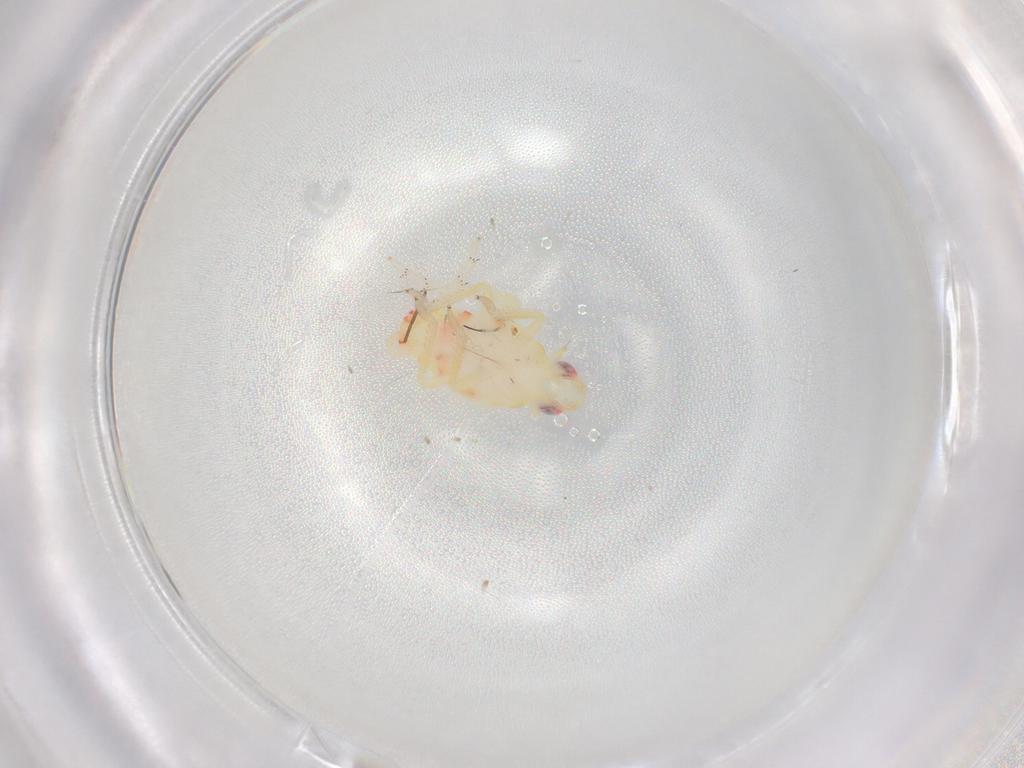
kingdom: Animalia
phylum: Arthropoda
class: Insecta
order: Hemiptera
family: Tropiduchidae
